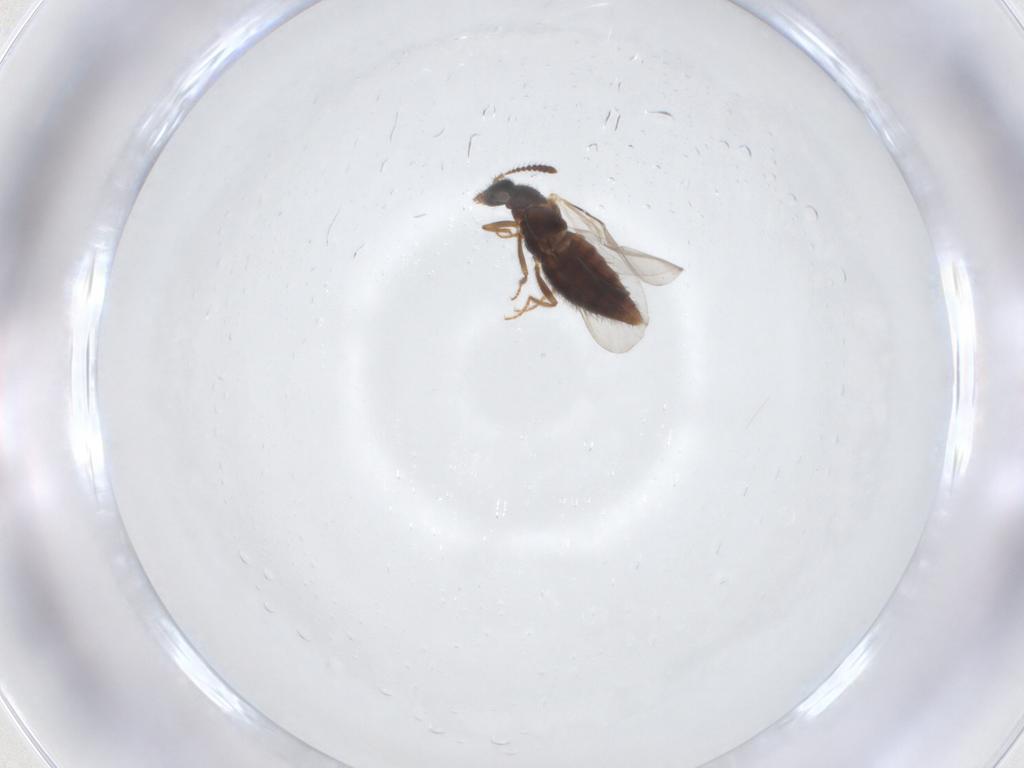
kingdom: Animalia
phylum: Arthropoda
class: Insecta
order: Coleoptera
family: Staphylinidae
